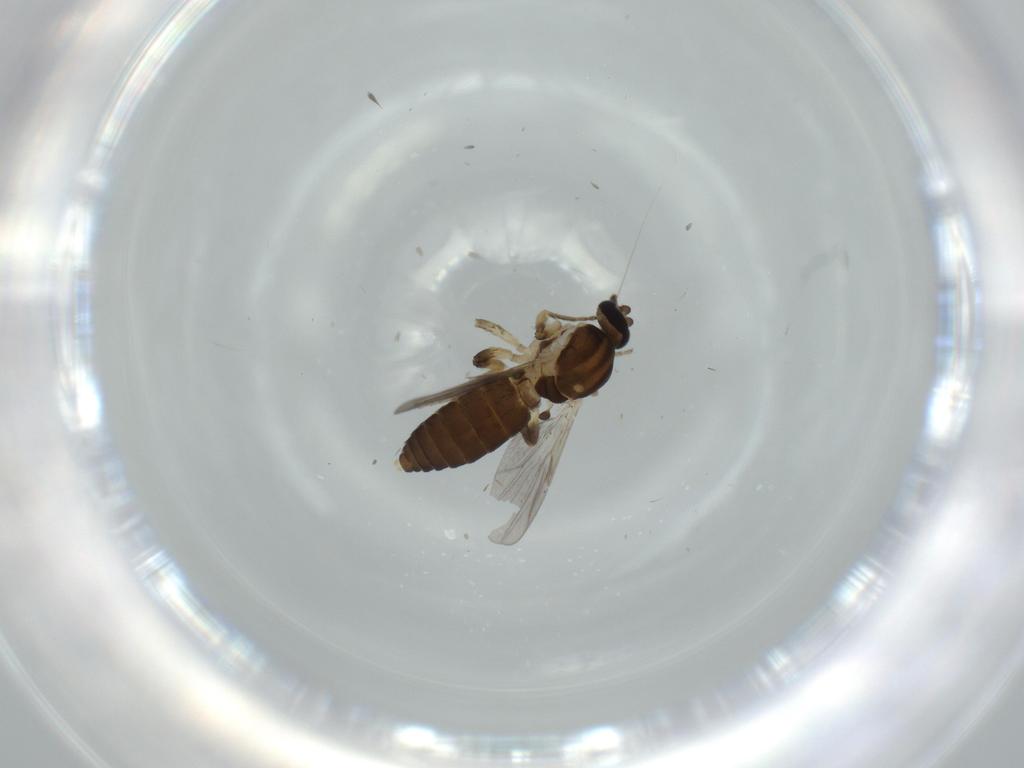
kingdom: Animalia
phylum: Arthropoda
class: Insecta
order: Diptera
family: Ceratopogonidae
